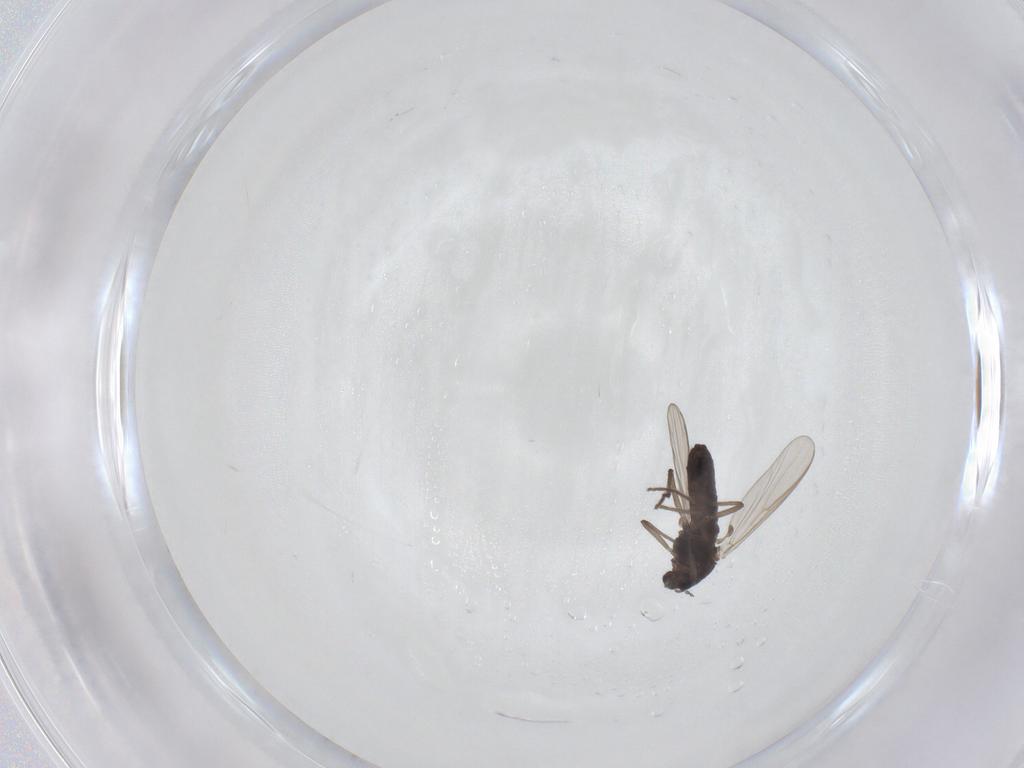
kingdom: Animalia
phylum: Arthropoda
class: Insecta
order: Diptera
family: Chironomidae
